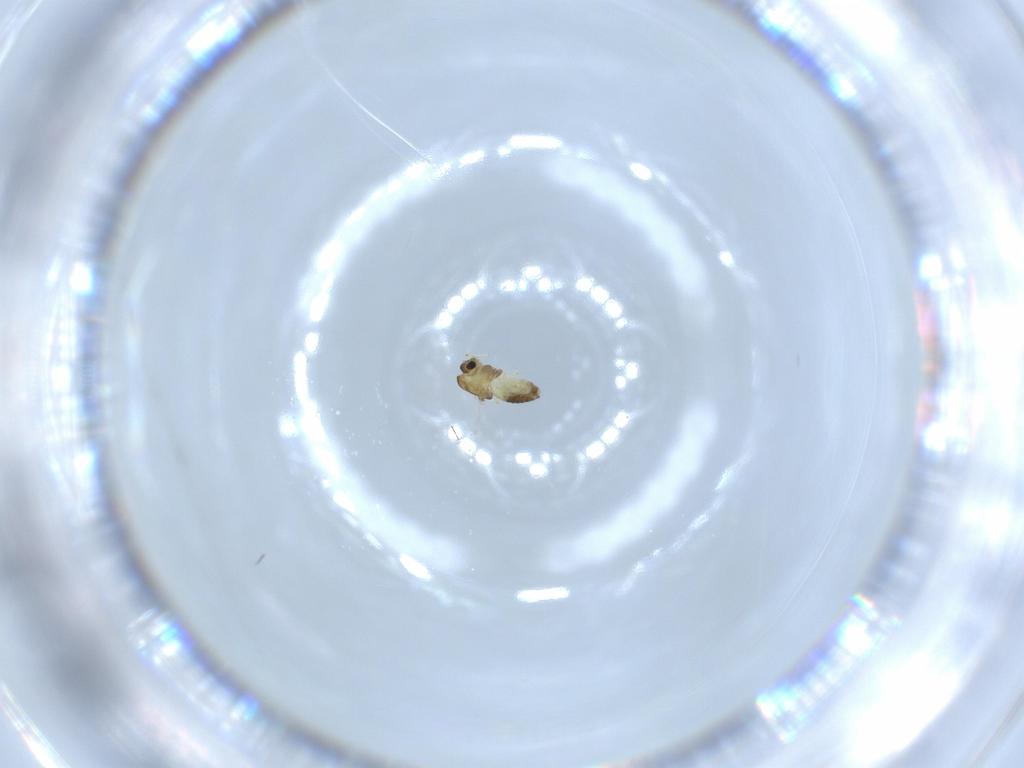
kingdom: Animalia
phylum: Arthropoda
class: Insecta
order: Diptera
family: Chironomidae
